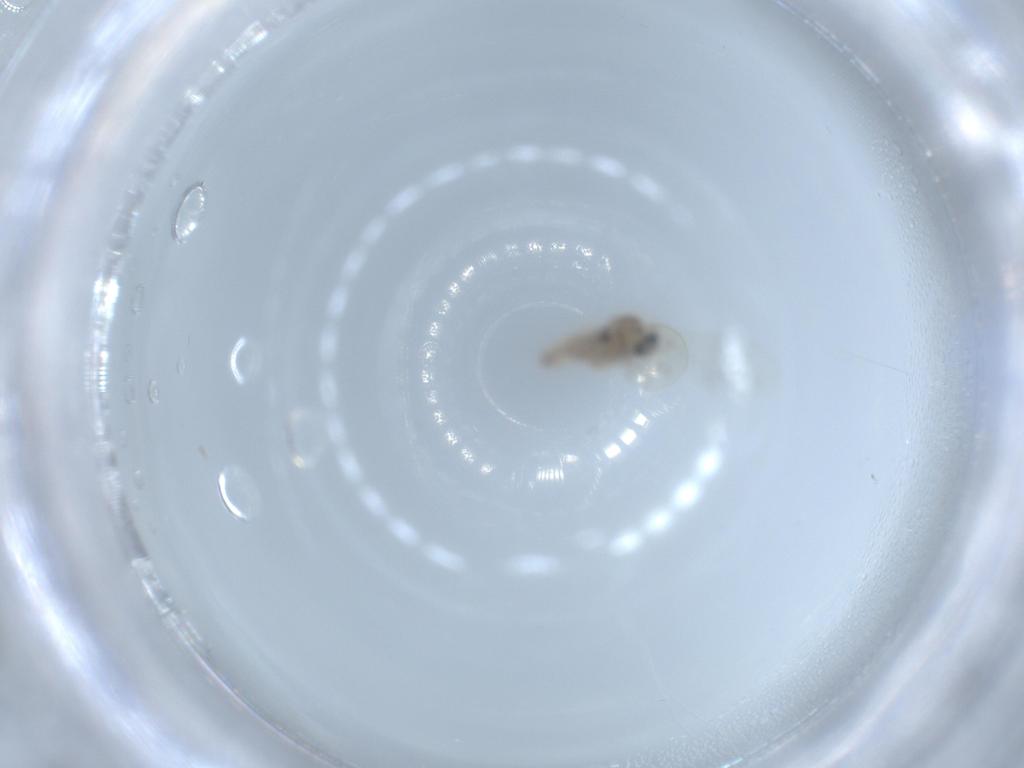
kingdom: Animalia
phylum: Arthropoda
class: Insecta
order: Diptera
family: Cecidomyiidae
